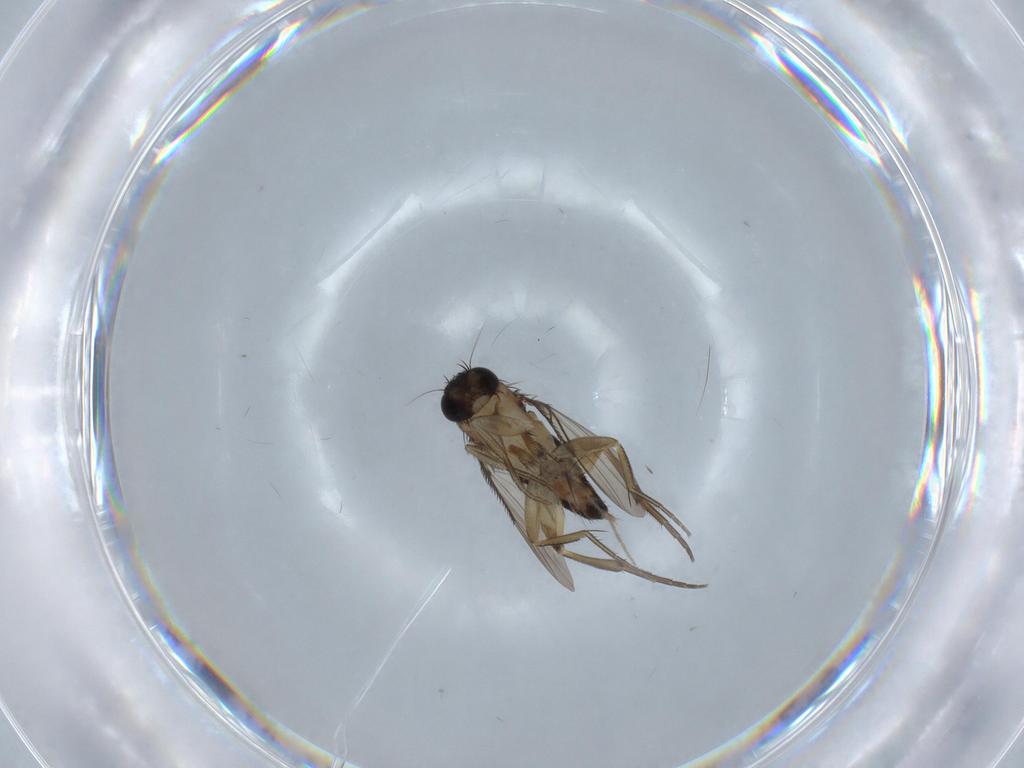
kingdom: Animalia
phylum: Arthropoda
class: Insecta
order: Diptera
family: Phoridae
